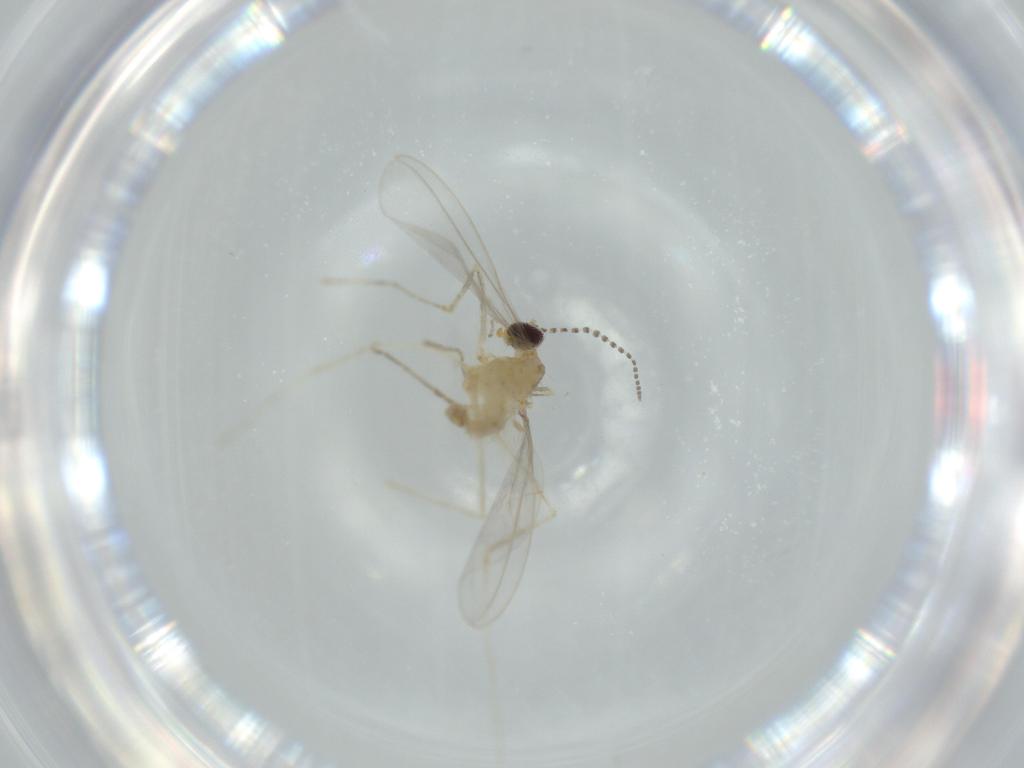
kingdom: Animalia
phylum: Arthropoda
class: Insecta
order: Diptera
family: Cecidomyiidae
